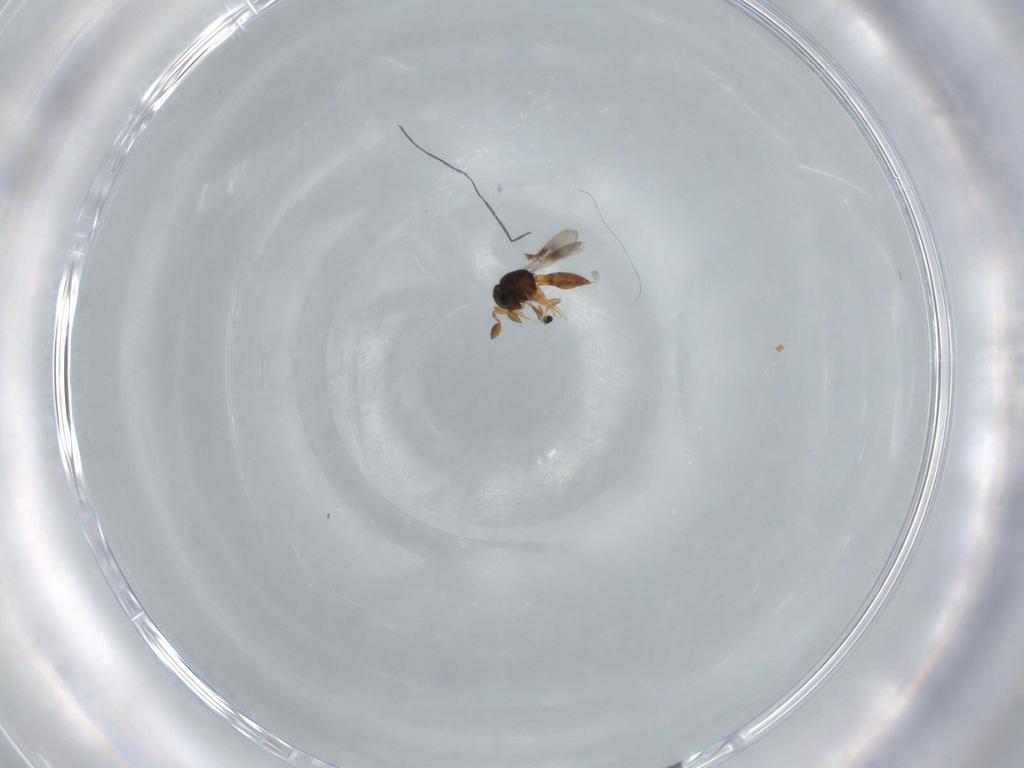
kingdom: Animalia
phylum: Arthropoda
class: Insecta
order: Hymenoptera
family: Scelionidae
